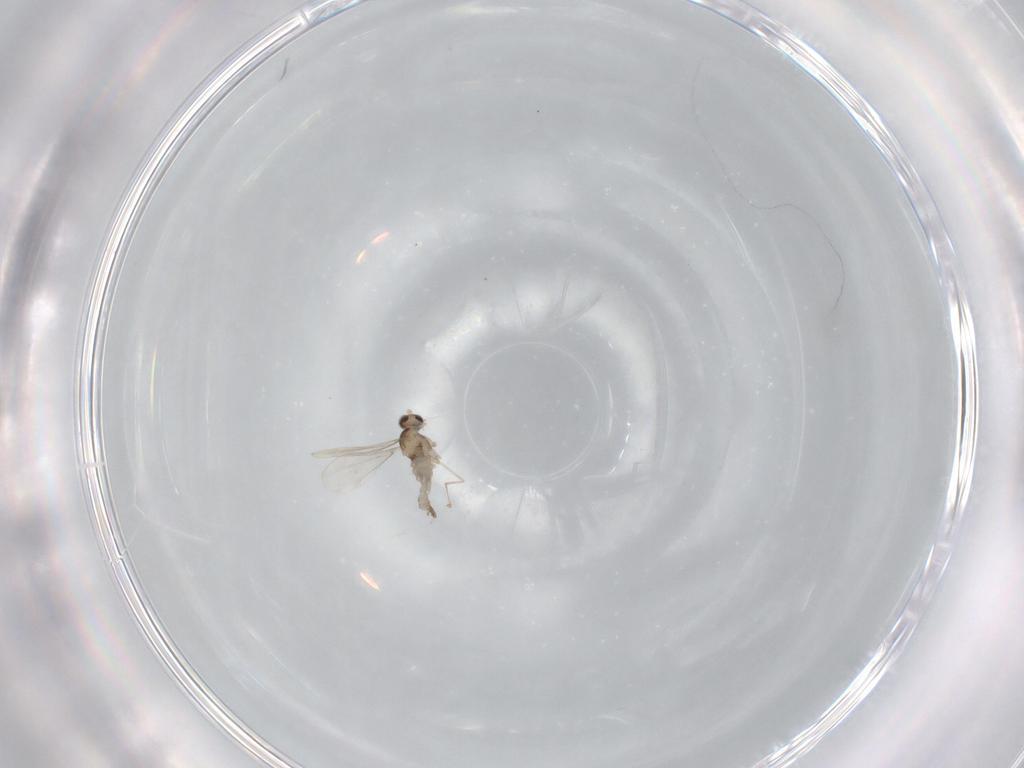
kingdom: Animalia
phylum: Arthropoda
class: Insecta
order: Diptera
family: Cecidomyiidae
